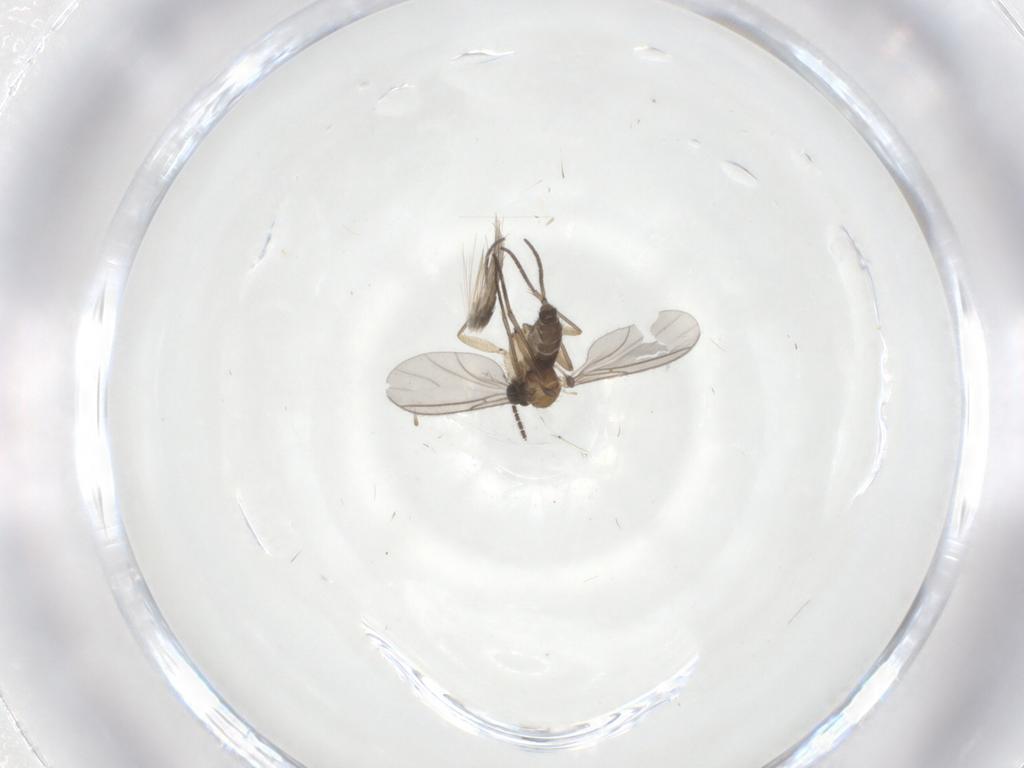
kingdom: Animalia
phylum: Arthropoda
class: Insecta
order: Diptera
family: Sciaridae
